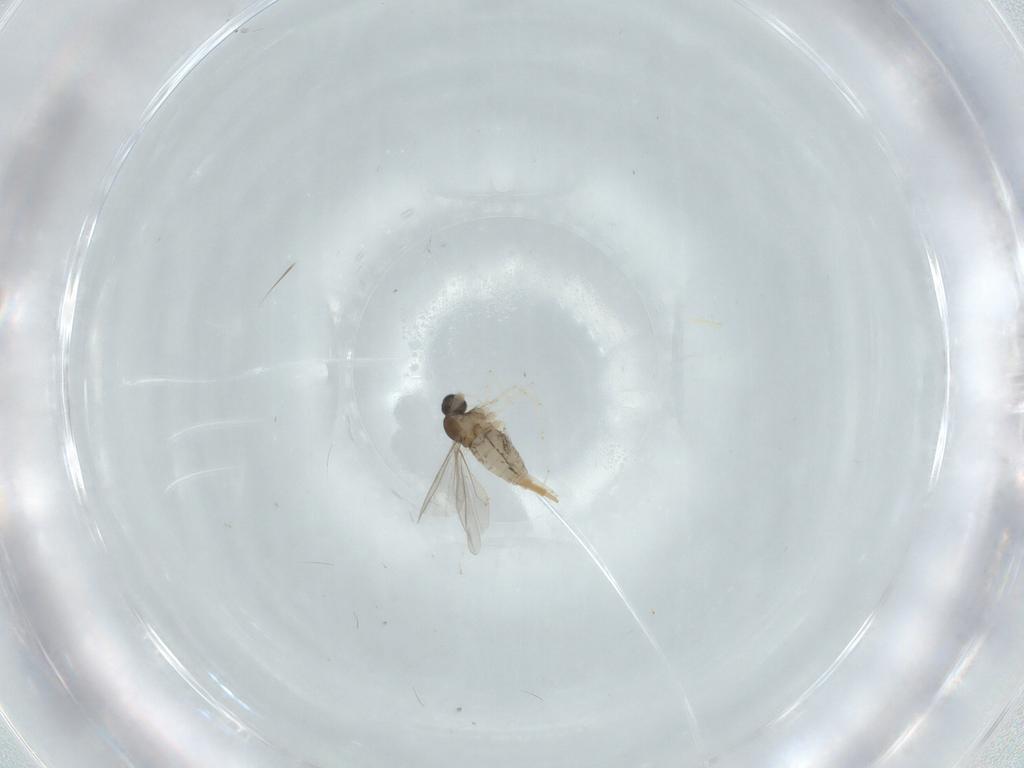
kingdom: Animalia
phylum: Arthropoda
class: Insecta
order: Diptera
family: Cecidomyiidae
